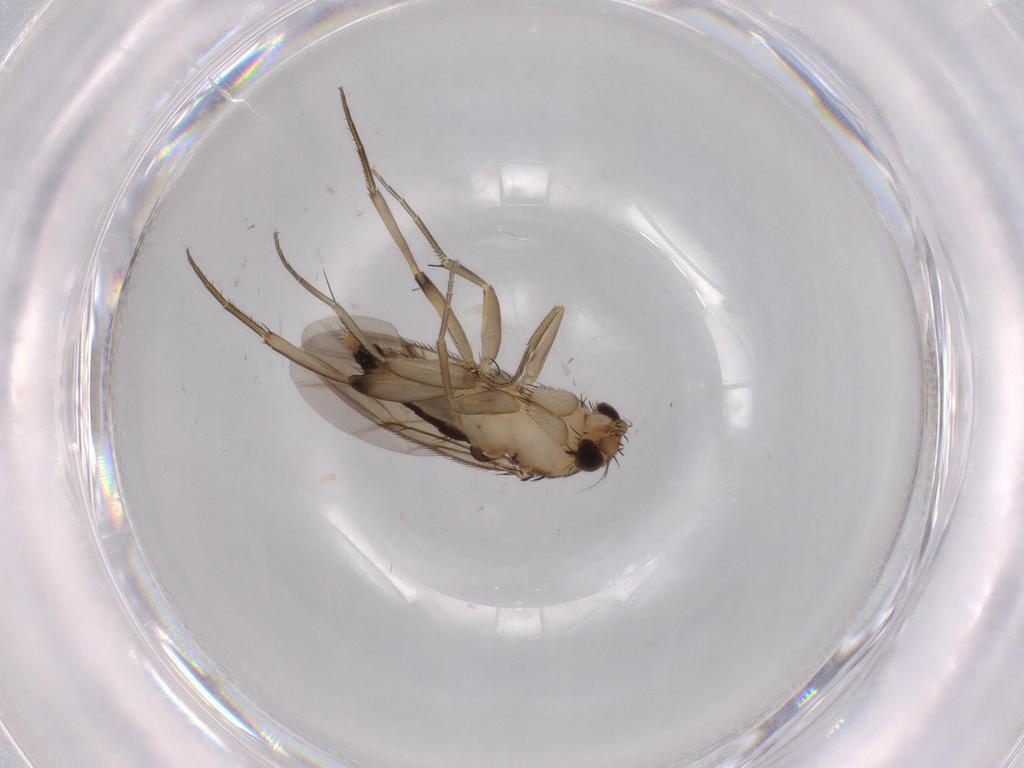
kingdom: Animalia
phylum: Arthropoda
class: Insecta
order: Diptera
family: Phoridae
